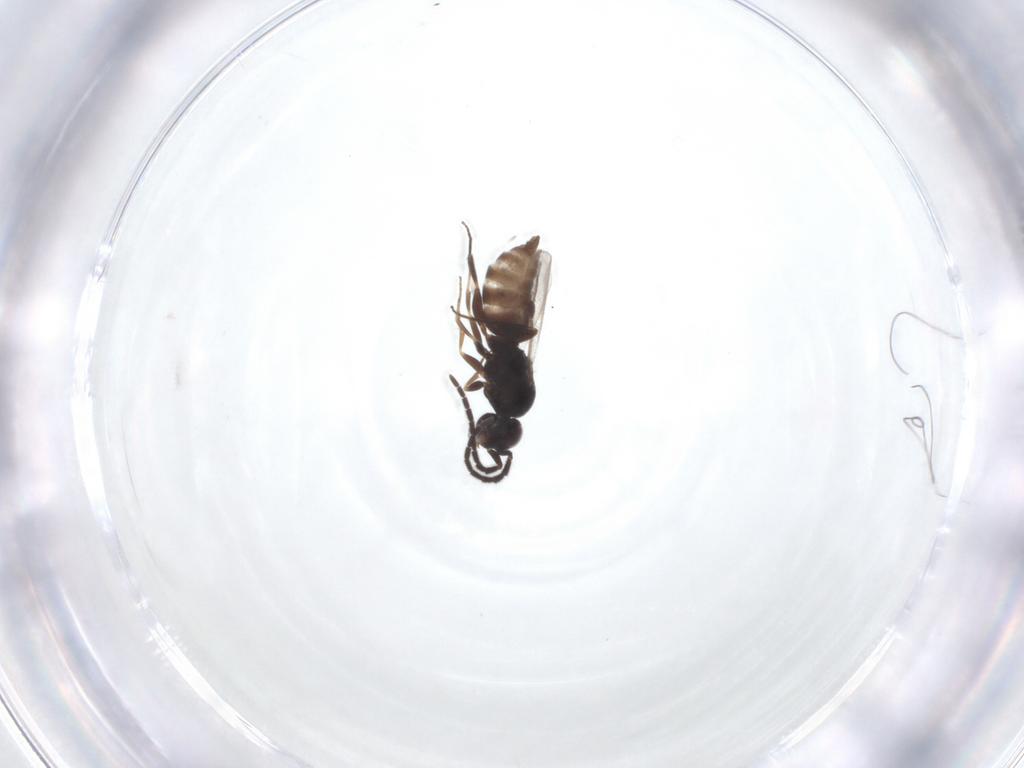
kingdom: Animalia
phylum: Arthropoda
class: Insecta
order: Hymenoptera
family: Megaspilidae
